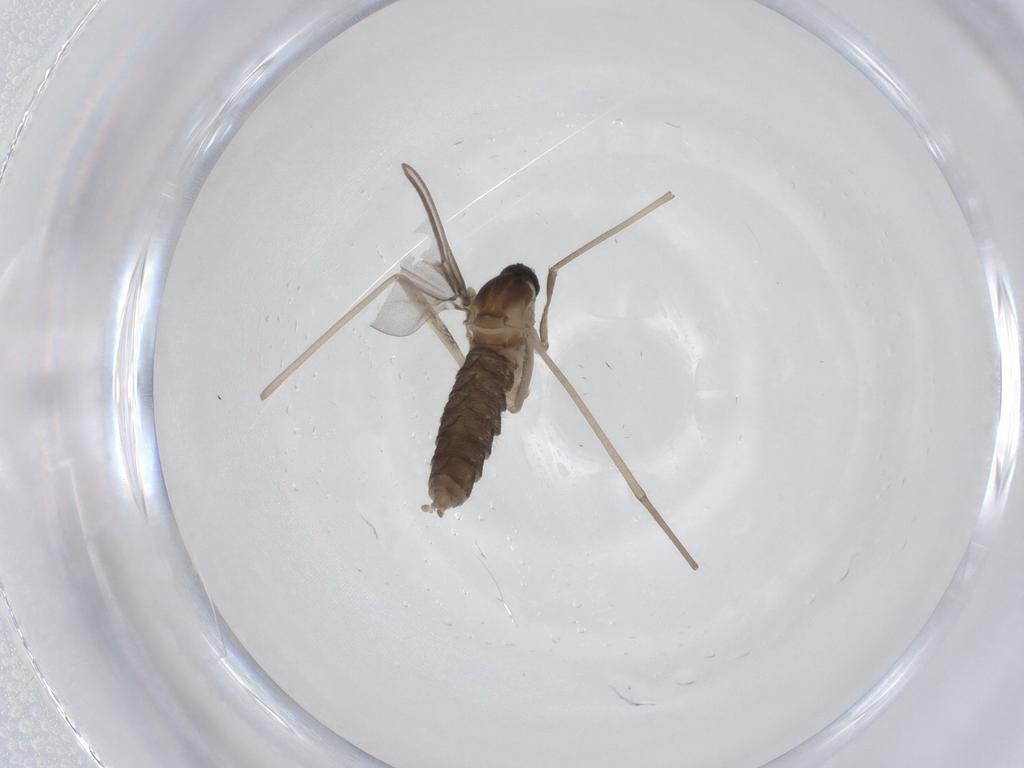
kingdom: Animalia
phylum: Arthropoda
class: Insecta
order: Diptera
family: Cecidomyiidae
